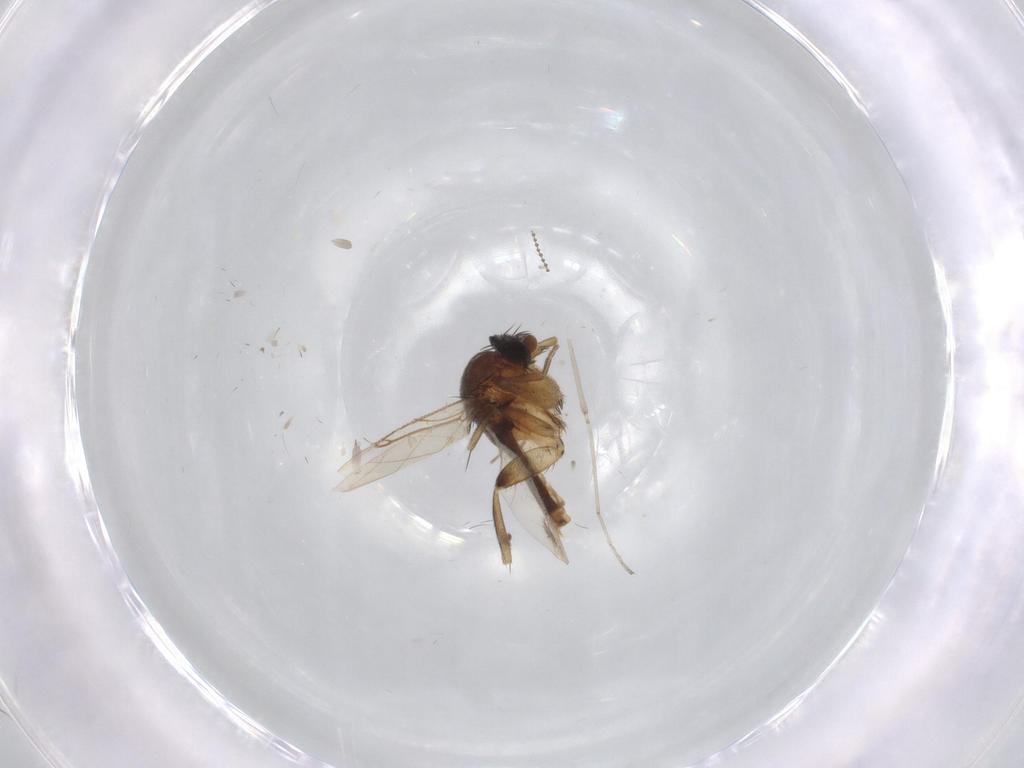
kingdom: Animalia
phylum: Arthropoda
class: Insecta
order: Diptera
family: Phoridae
